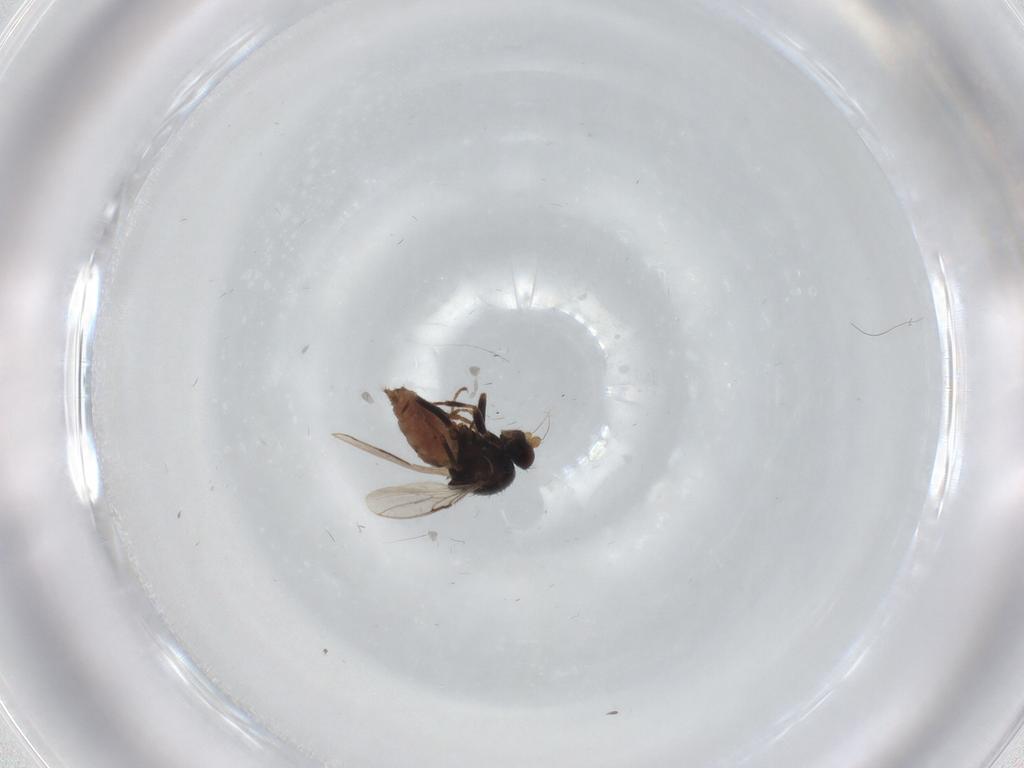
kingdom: Animalia
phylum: Arthropoda
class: Insecta
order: Diptera
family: Sphaeroceridae
